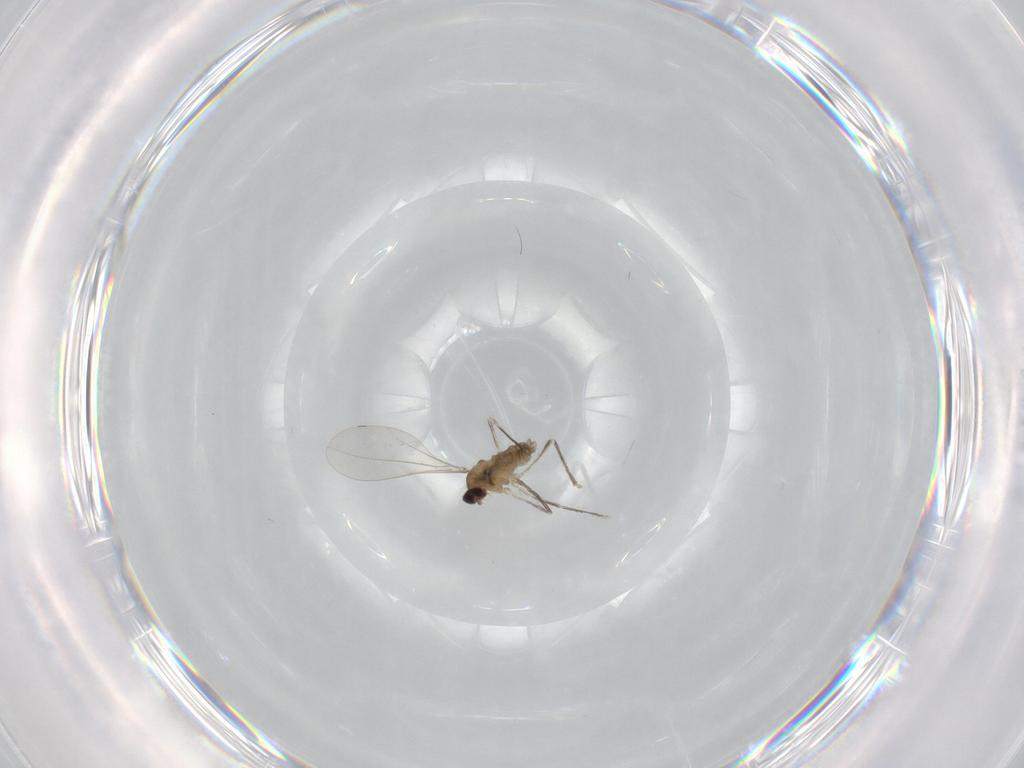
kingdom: Animalia
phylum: Arthropoda
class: Insecta
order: Diptera
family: Cecidomyiidae
